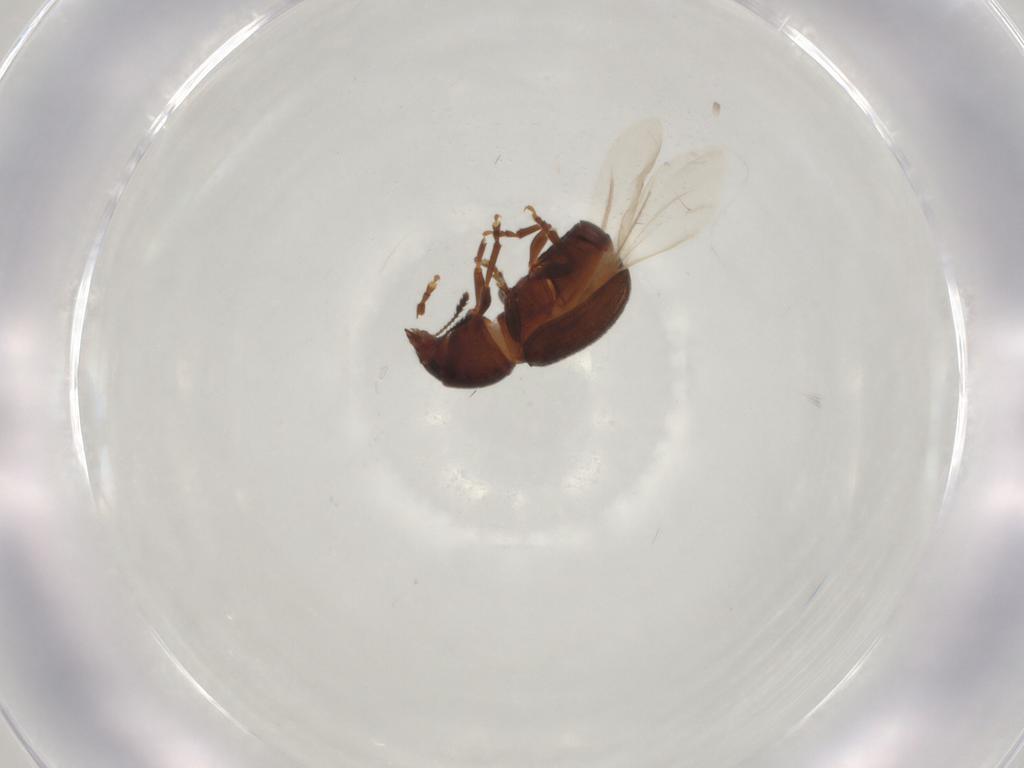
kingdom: Animalia
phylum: Arthropoda
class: Insecta
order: Coleoptera
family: Anthribidae
